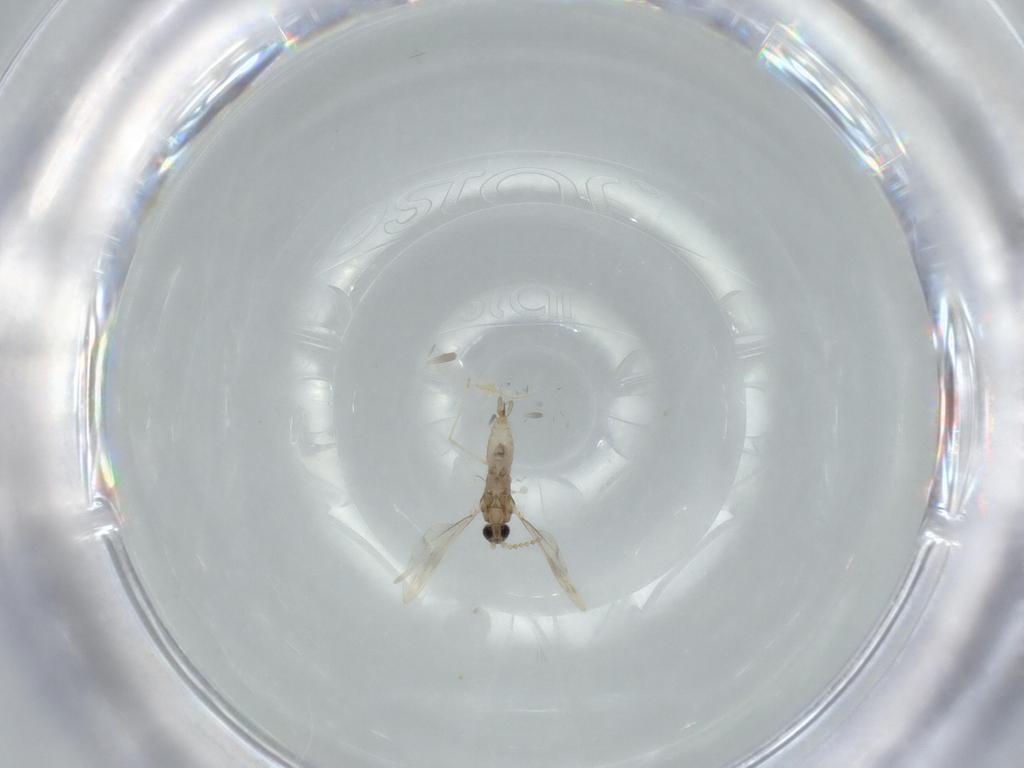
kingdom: Animalia
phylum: Arthropoda
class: Insecta
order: Diptera
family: Cecidomyiidae
